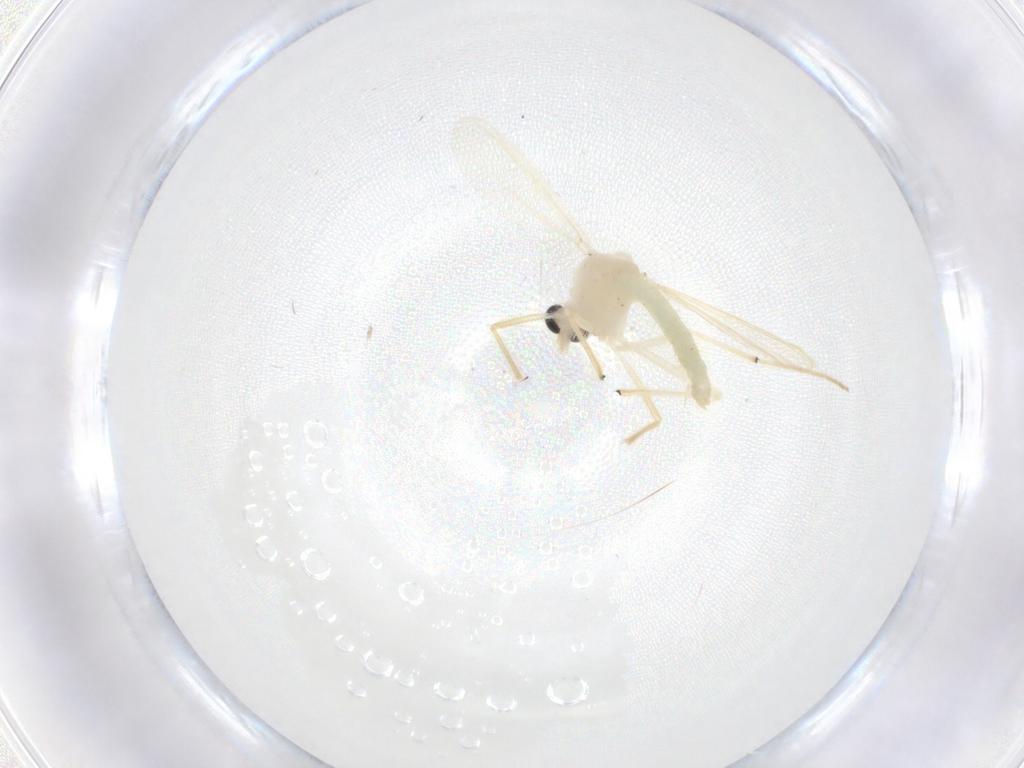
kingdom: Animalia
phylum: Arthropoda
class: Insecta
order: Diptera
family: Chironomidae
